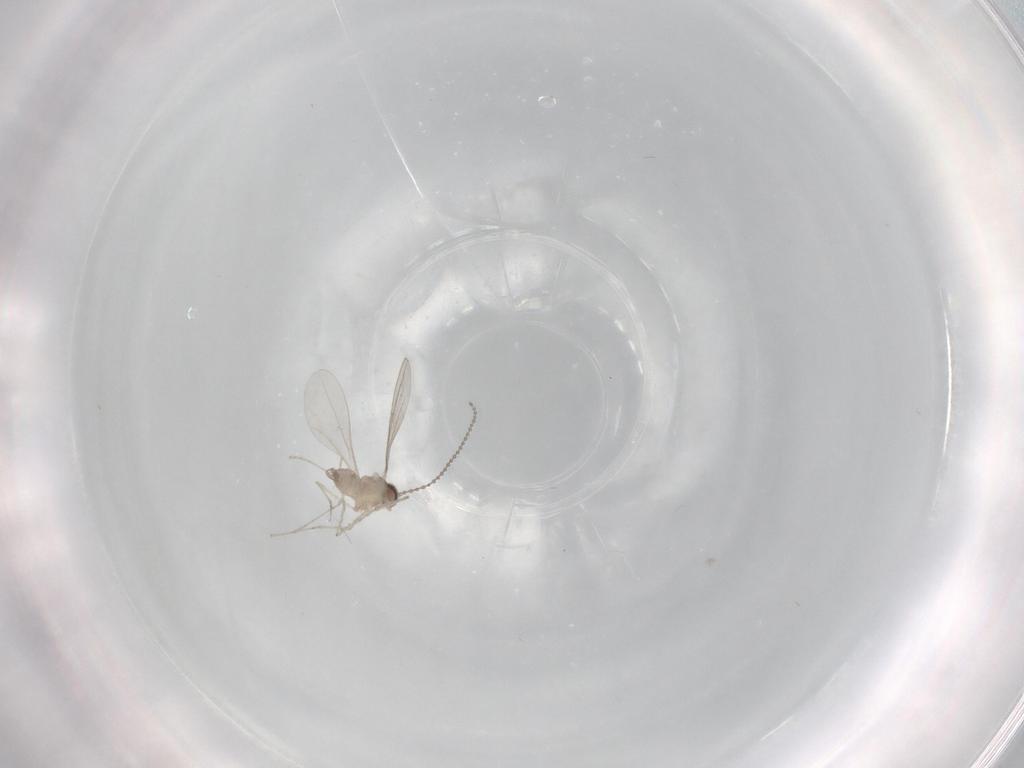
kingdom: Animalia
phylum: Arthropoda
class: Insecta
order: Diptera
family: Cecidomyiidae
